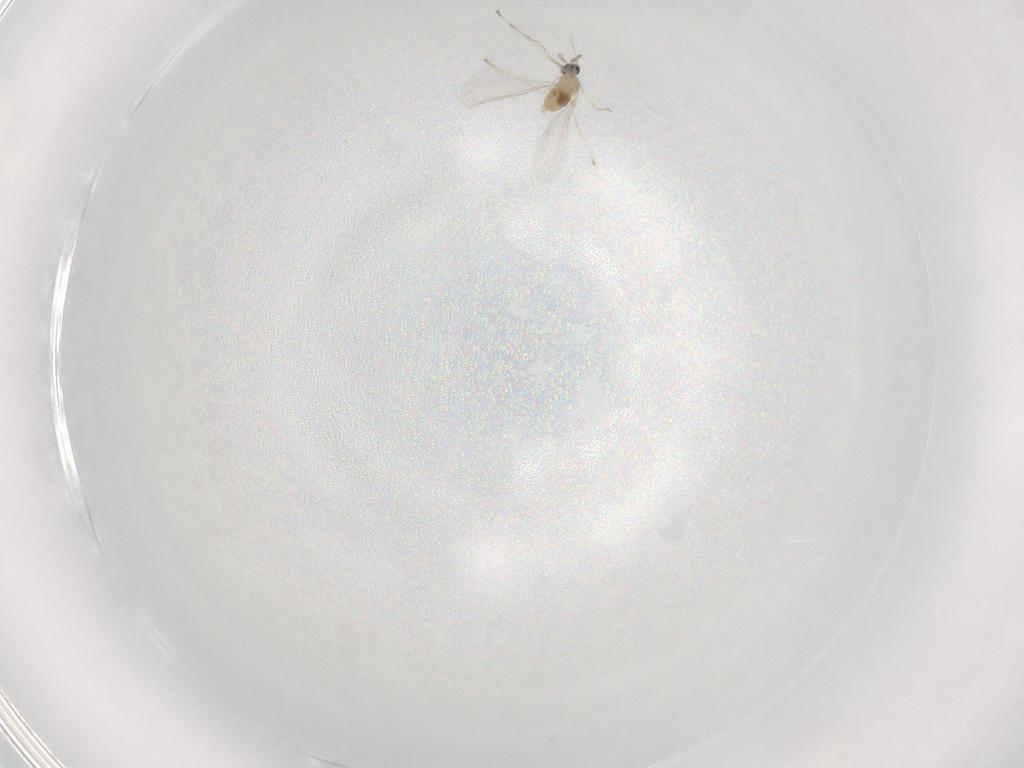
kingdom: Animalia
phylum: Arthropoda
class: Insecta
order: Diptera
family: Cecidomyiidae
